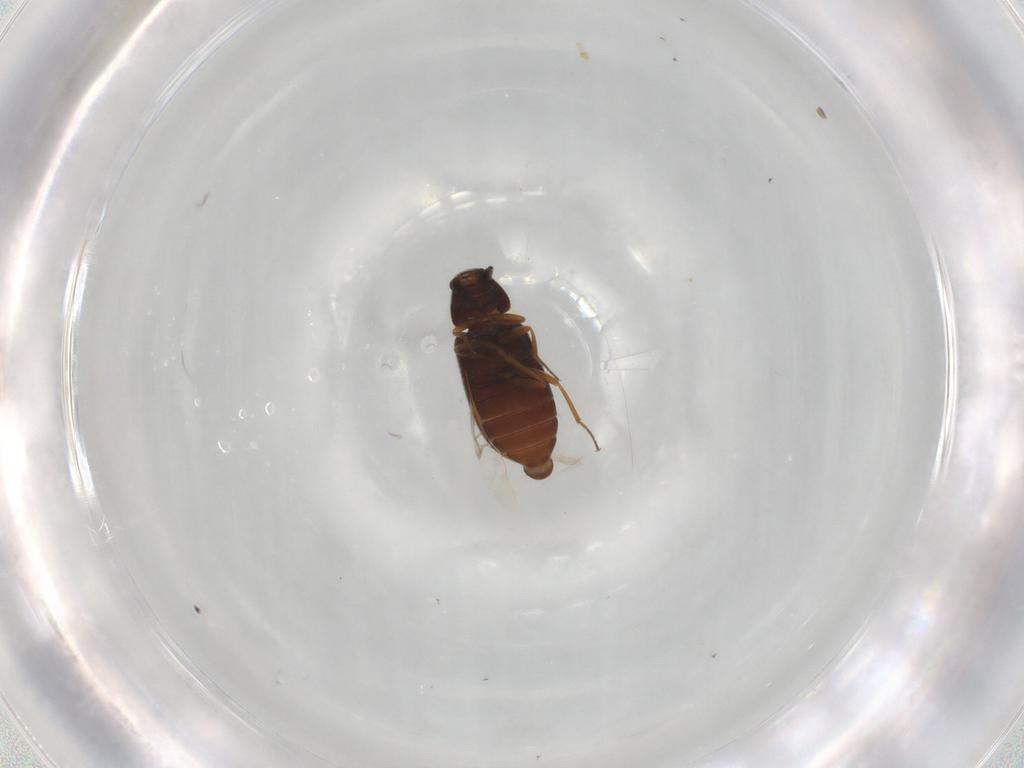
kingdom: Animalia
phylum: Arthropoda
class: Insecta
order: Coleoptera
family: Rhadalidae
